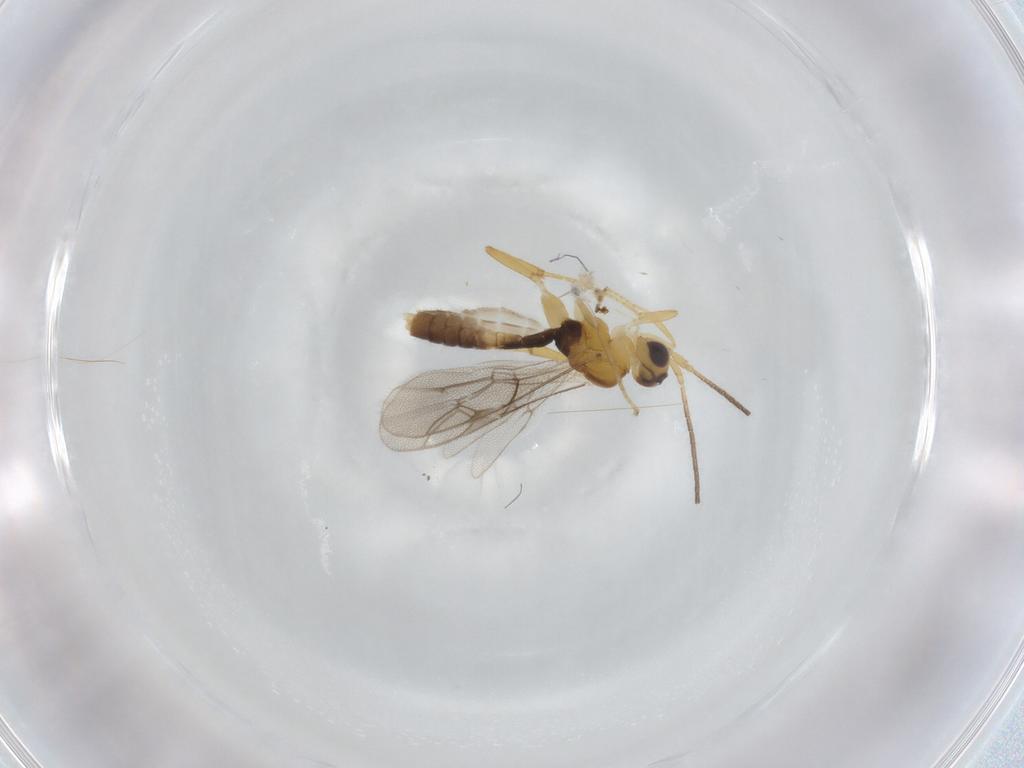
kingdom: Animalia
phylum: Arthropoda
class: Insecta
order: Hymenoptera
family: Ichneumonidae
